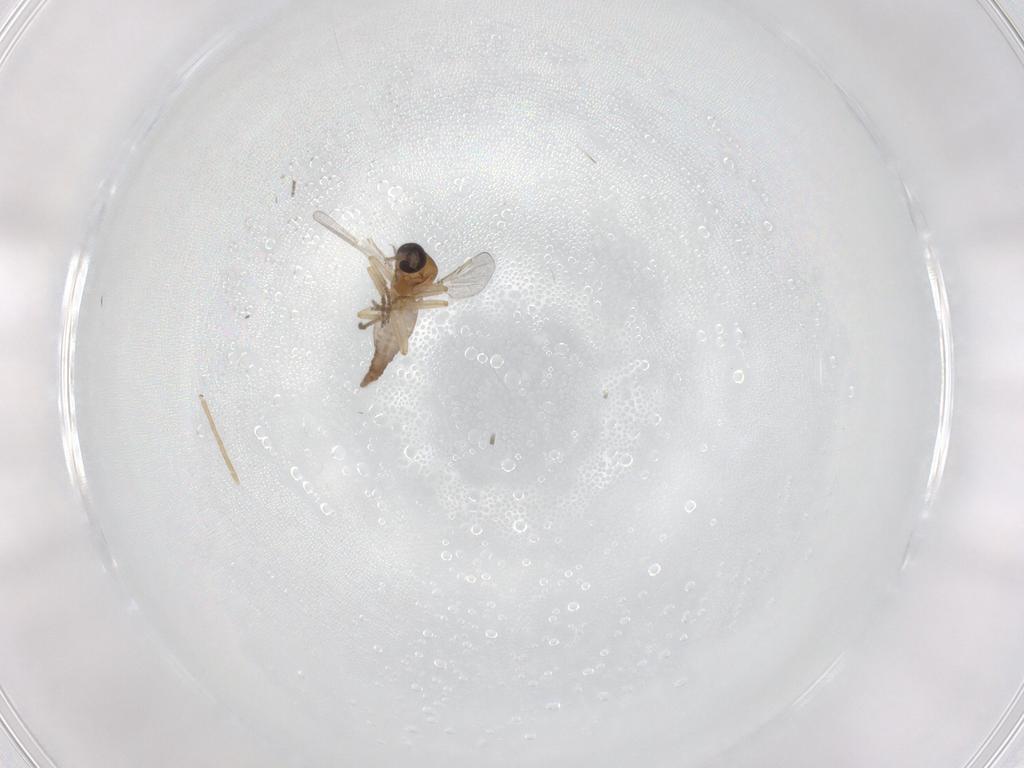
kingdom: Animalia
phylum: Arthropoda
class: Insecta
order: Diptera
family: Chironomidae
